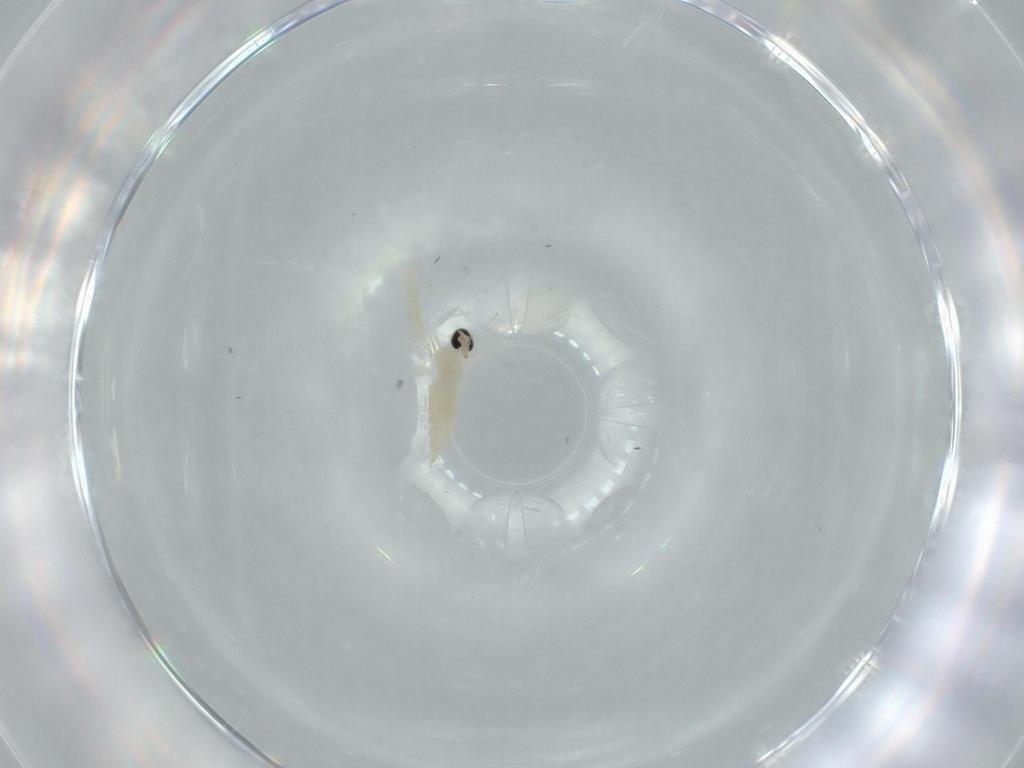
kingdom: Animalia
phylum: Arthropoda
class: Insecta
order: Diptera
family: Cecidomyiidae
